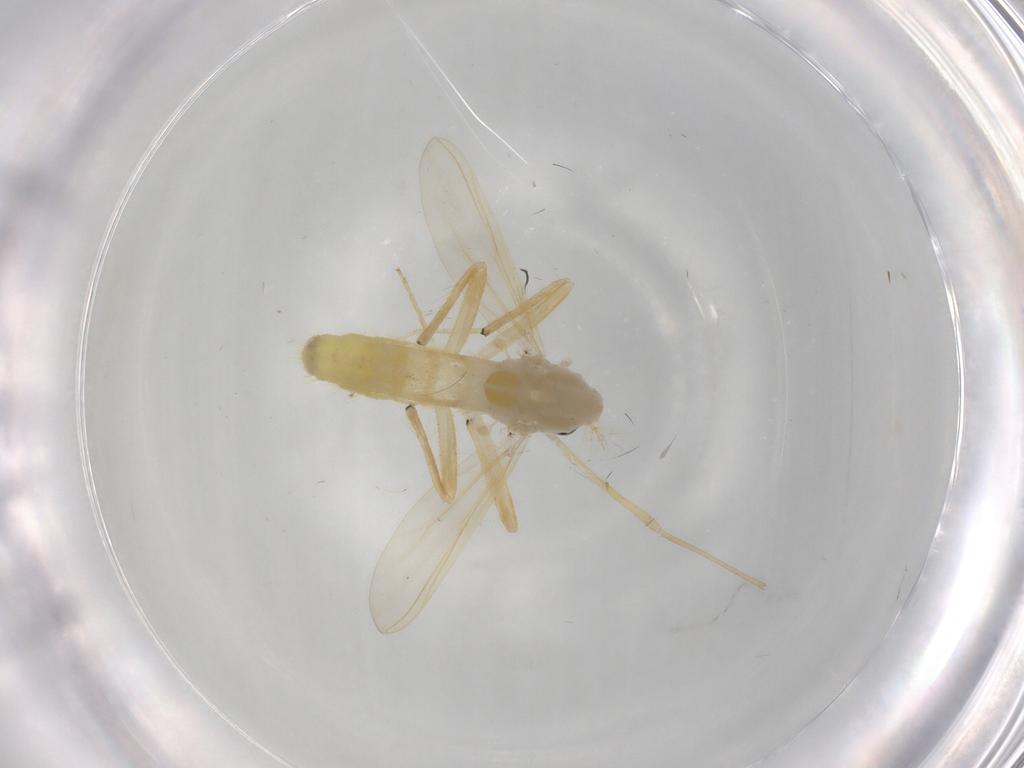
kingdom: Animalia
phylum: Arthropoda
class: Insecta
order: Diptera
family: Chironomidae
